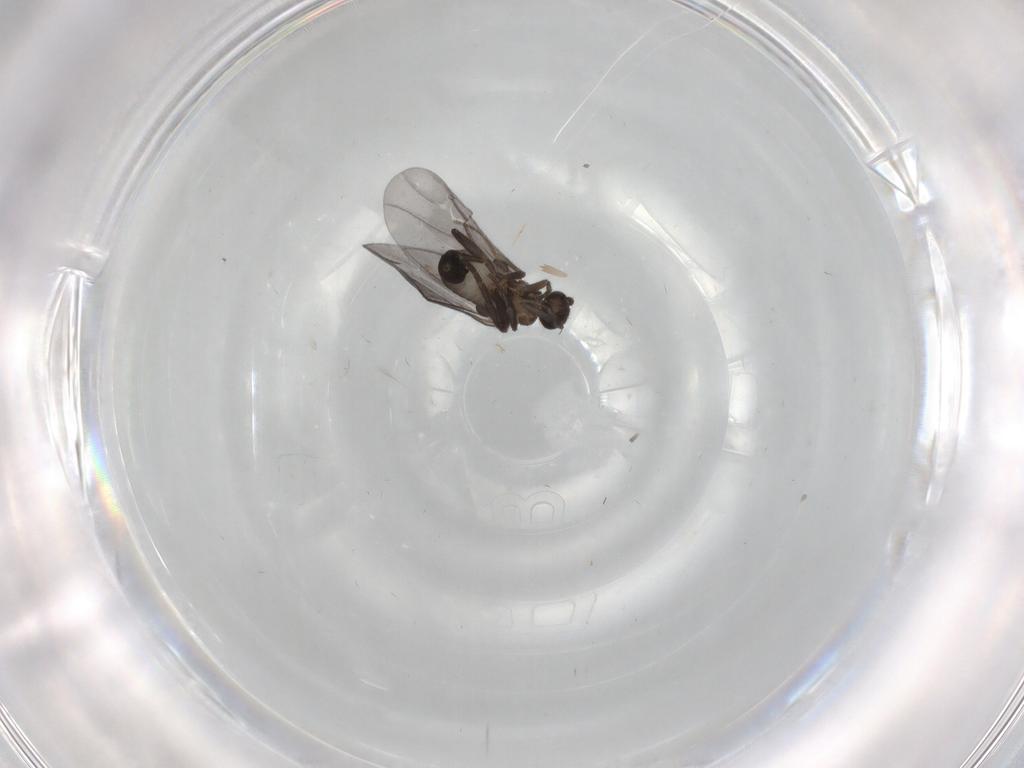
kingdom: Animalia
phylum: Arthropoda
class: Insecta
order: Diptera
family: Phoridae
